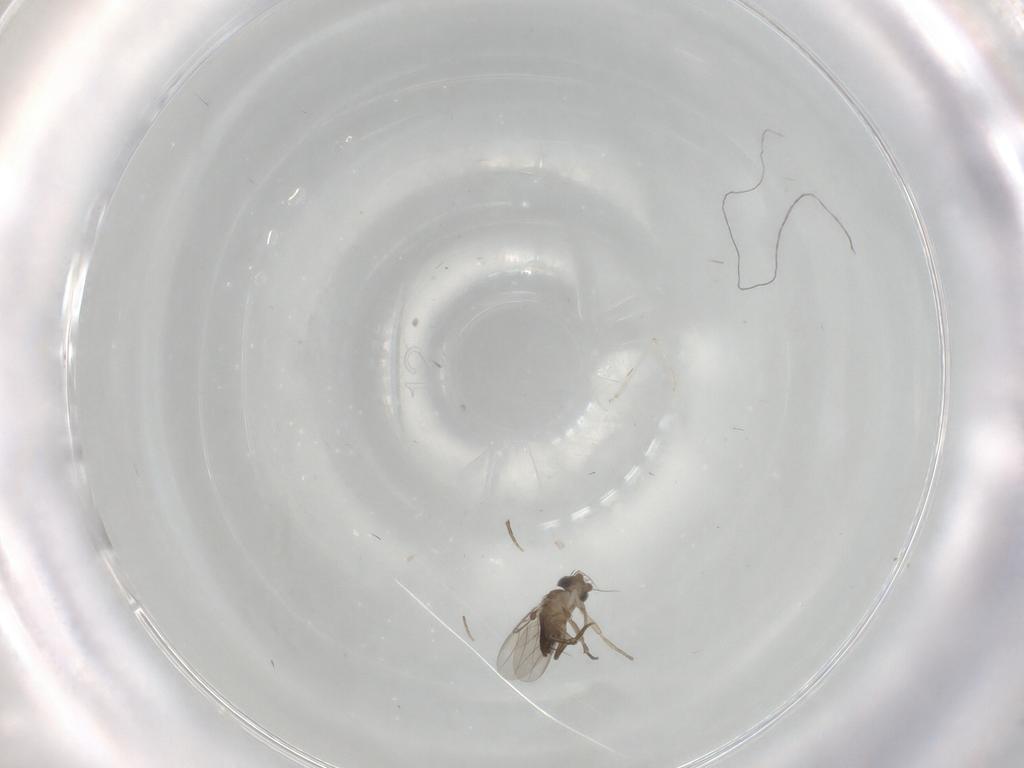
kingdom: Animalia
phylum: Arthropoda
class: Insecta
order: Diptera
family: Phoridae
